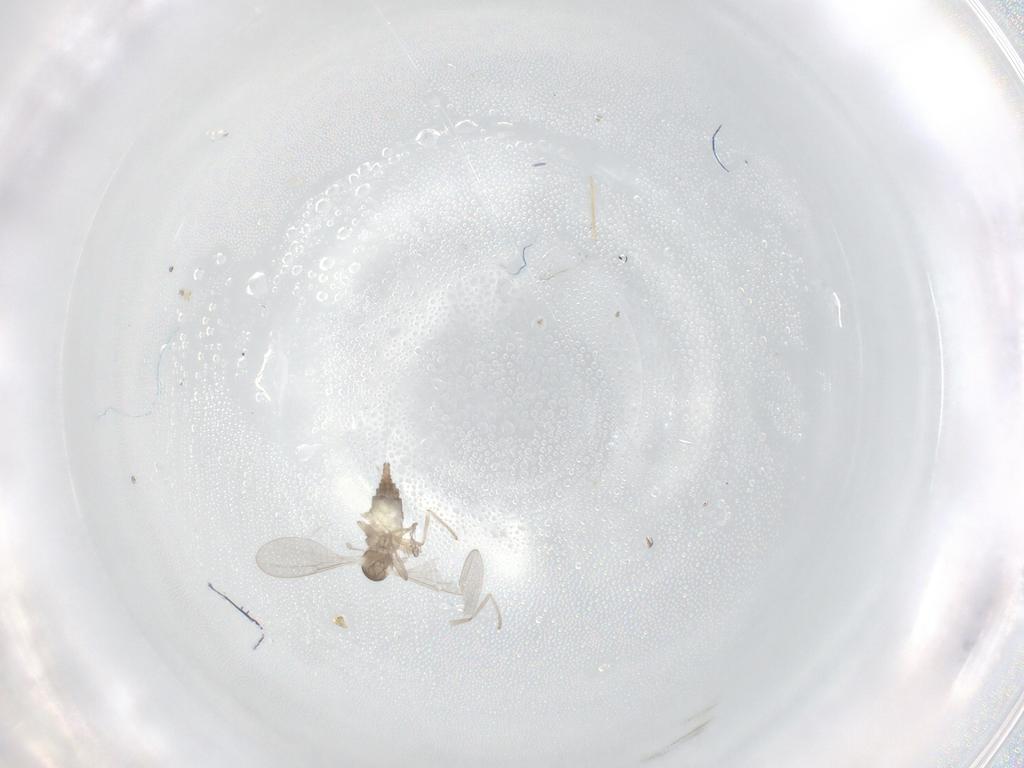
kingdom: Animalia
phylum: Arthropoda
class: Insecta
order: Diptera
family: Cecidomyiidae
